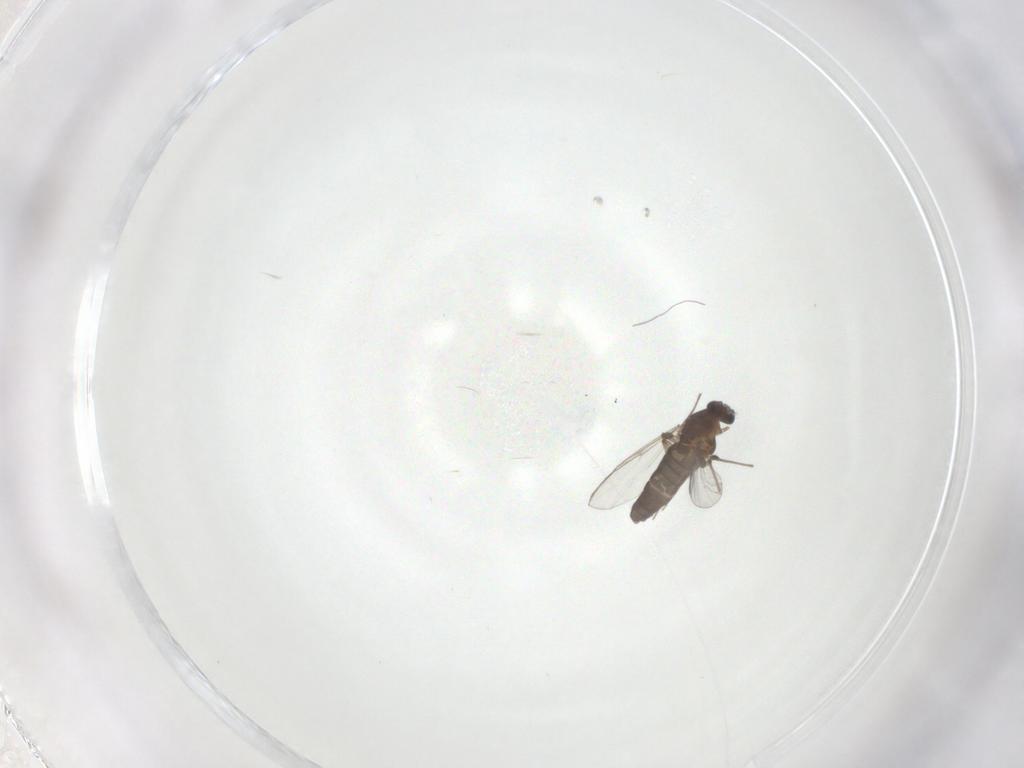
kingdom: Animalia
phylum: Arthropoda
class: Insecta
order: Diptera
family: Chironomidae
